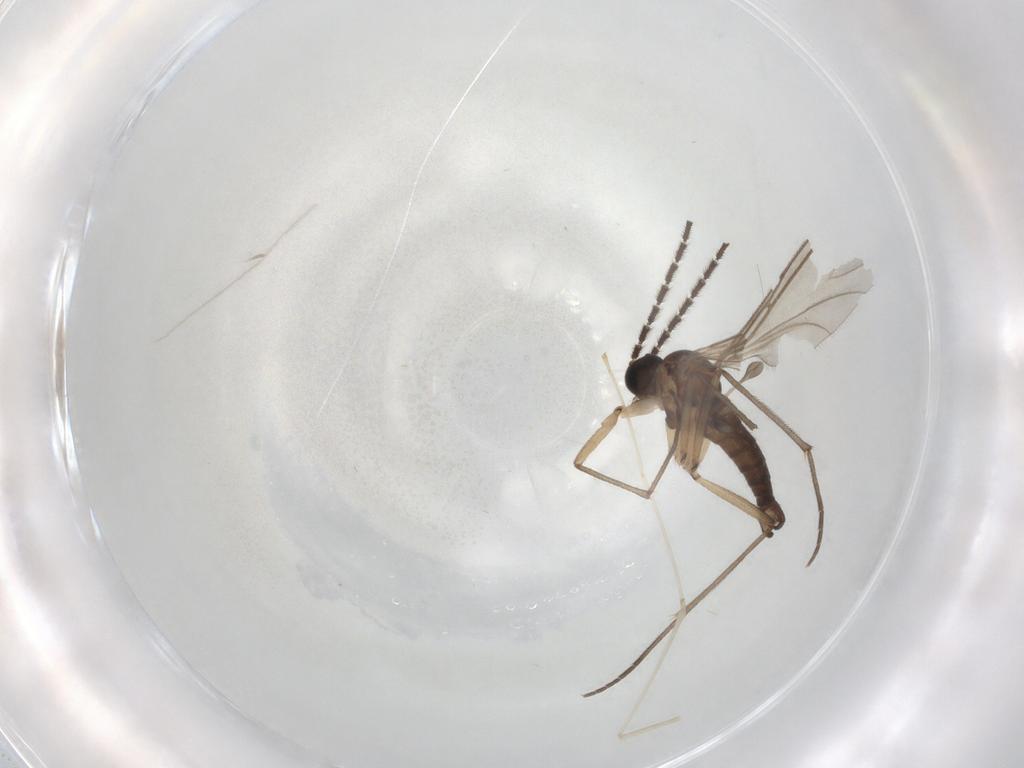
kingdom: Animalia
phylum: Arthropoda
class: Insecta
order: Diptera
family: Sciaridae
